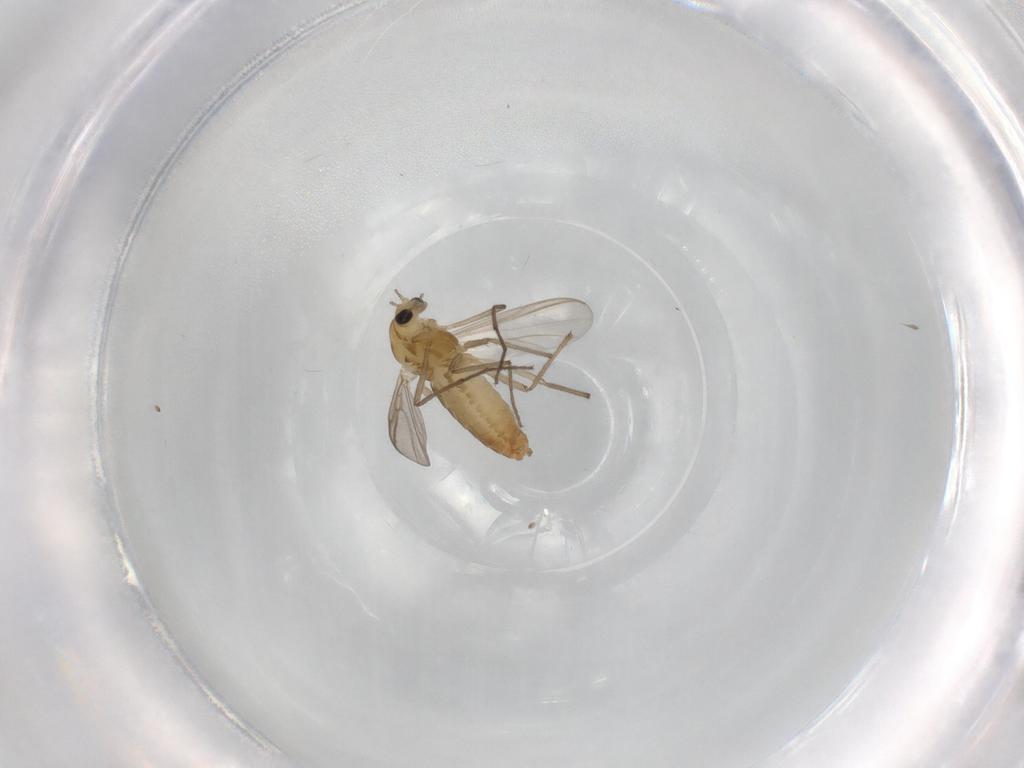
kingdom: Animalia
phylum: Arthropoda
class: Insecta
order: Diptera
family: Chironomidae
